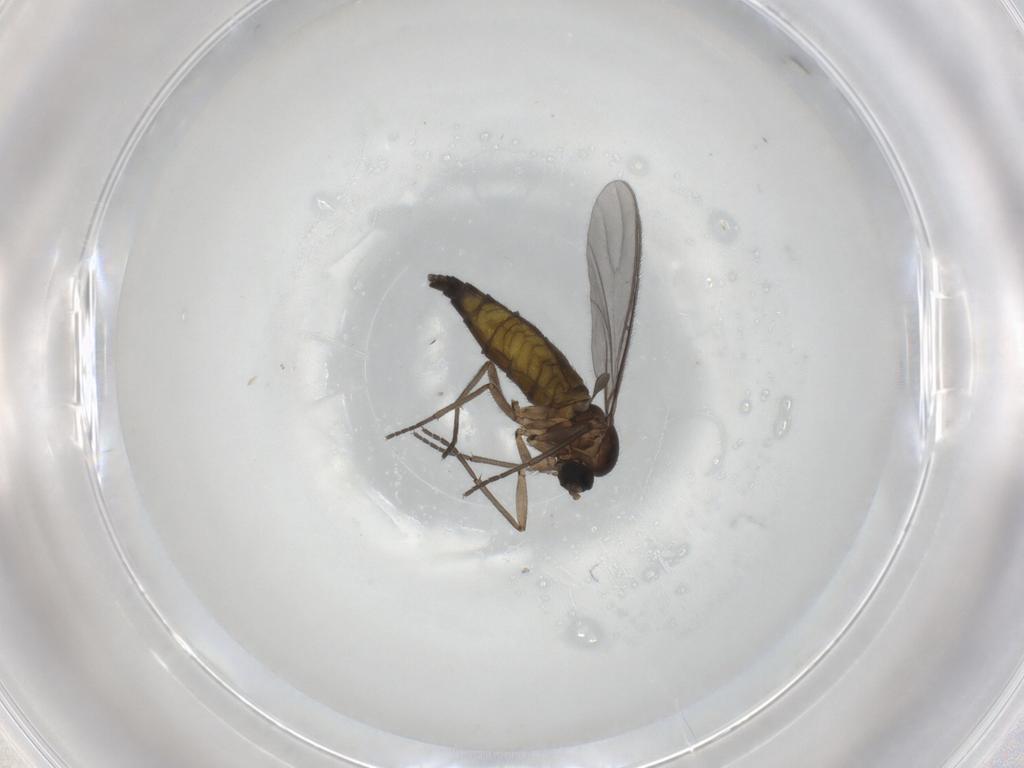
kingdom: Animalia
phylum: Arthropoda
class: Insecta
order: Diptera
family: Sciaridae
